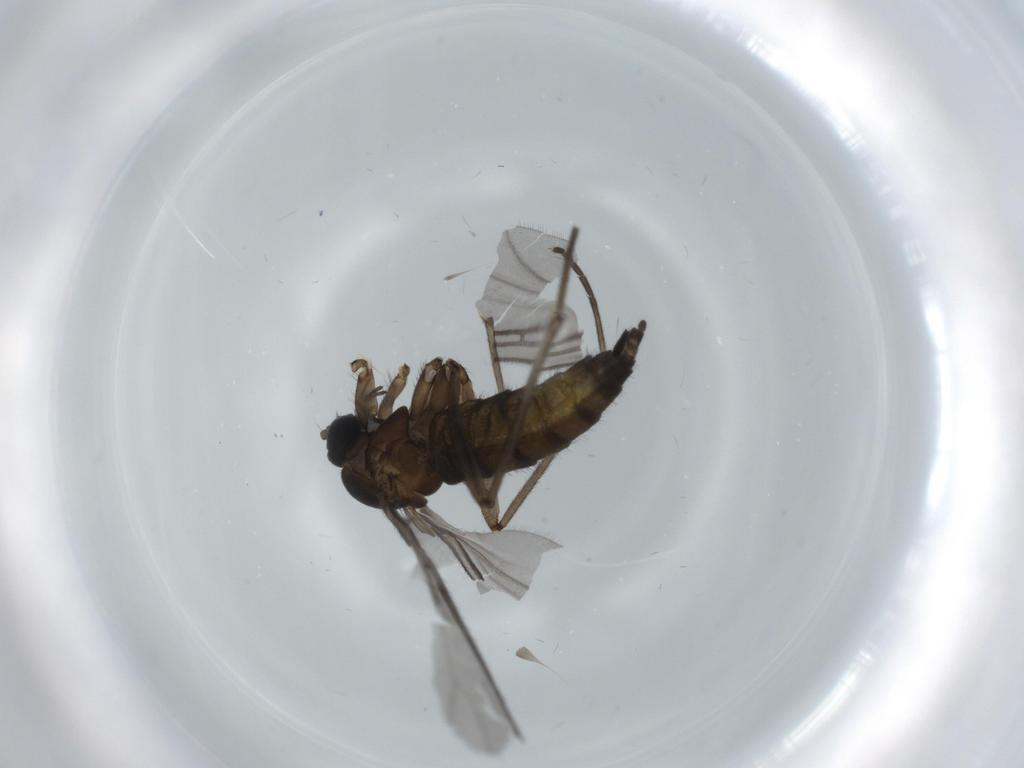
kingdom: Animalia
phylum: Arthropoda
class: Insecta
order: Diptera
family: Sciaridae
